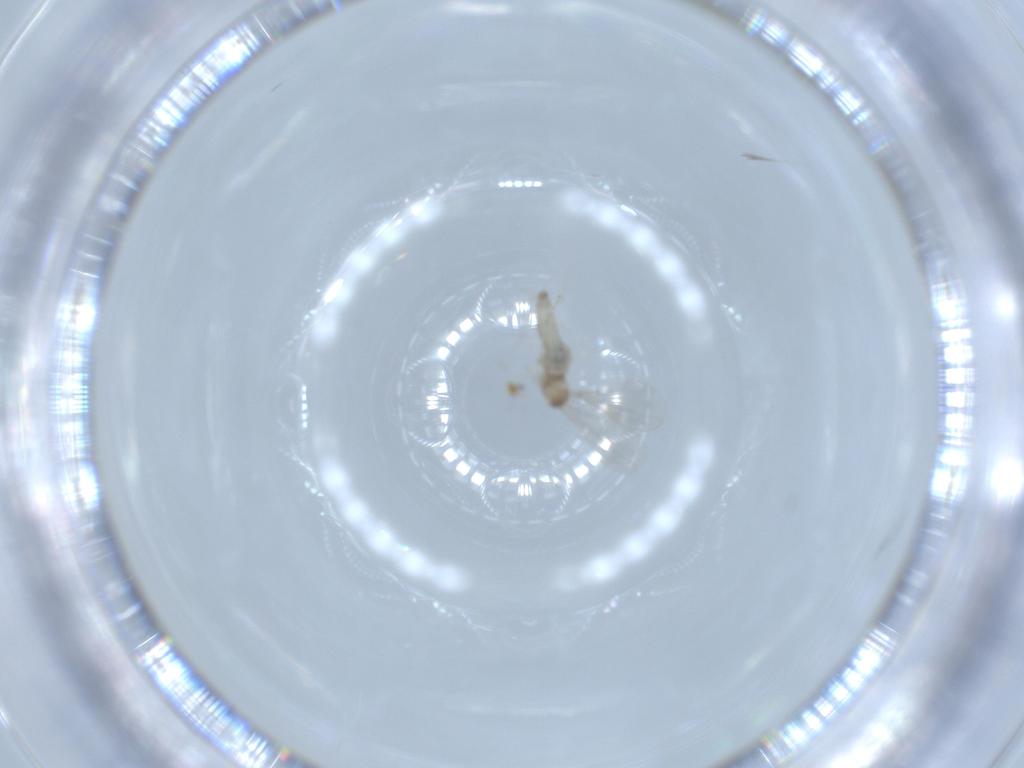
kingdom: Animalia
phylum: Arthropoda
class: Insecta
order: Diptera
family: Cecidomyiidae
